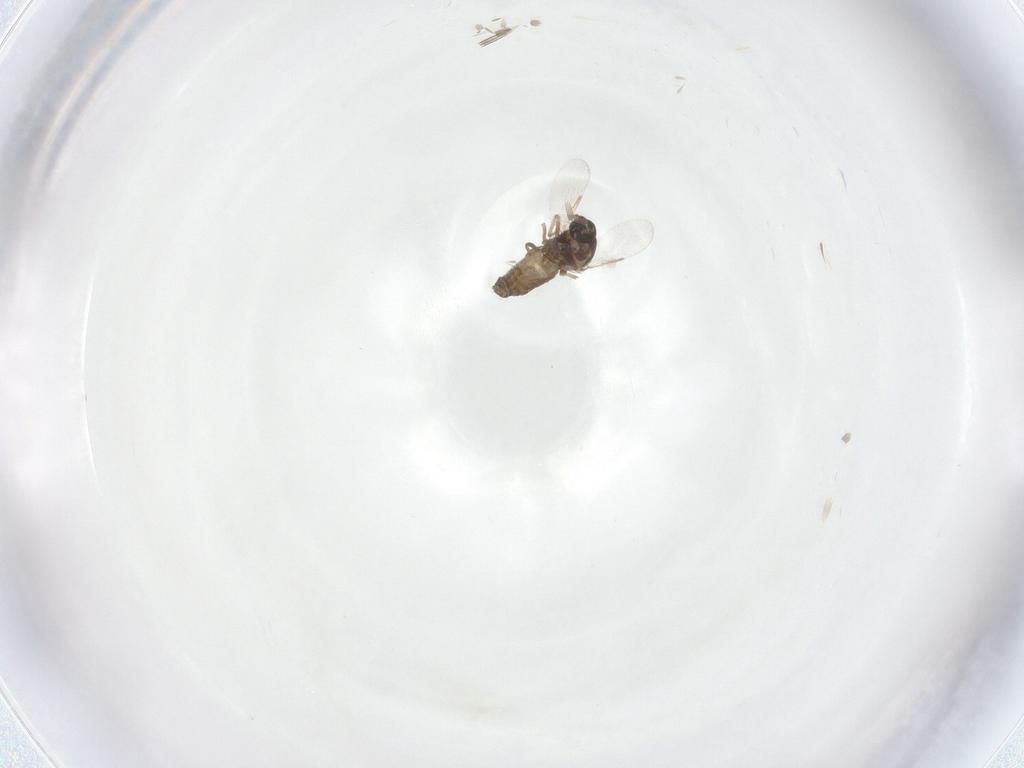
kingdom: Animalia
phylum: Arthropoda
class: Insecta
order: Diptera
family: Ceratopogonidae
